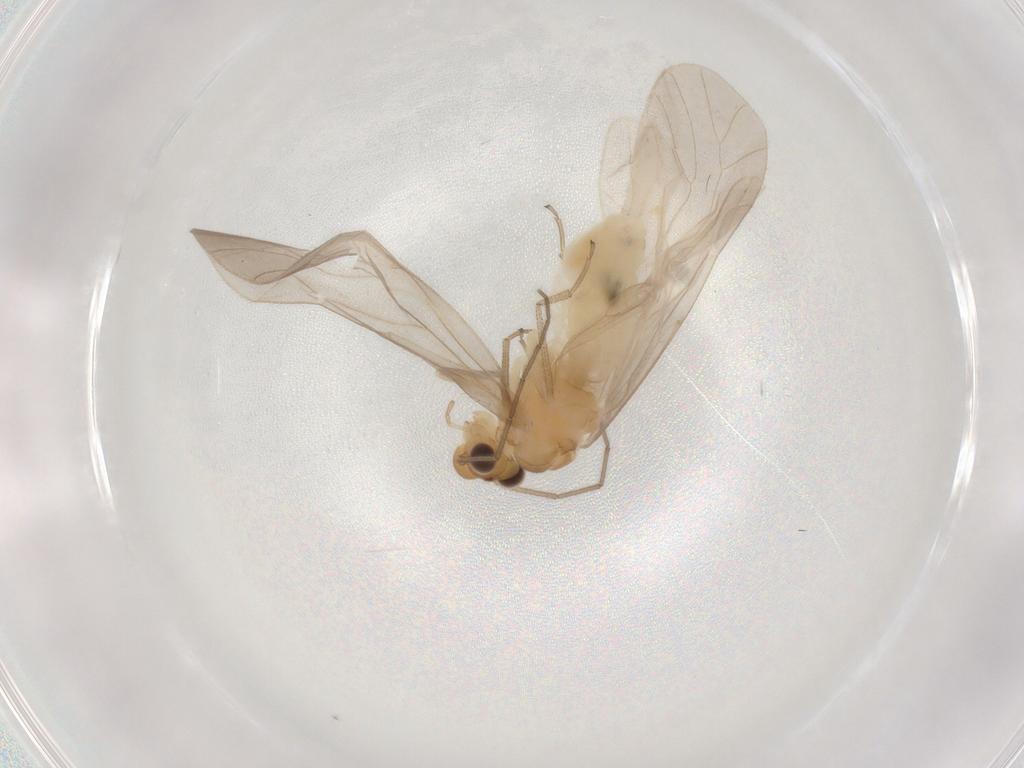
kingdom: Animalia
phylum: Arthropoda
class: Insecta
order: Psocodea
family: Caeciliusidae
